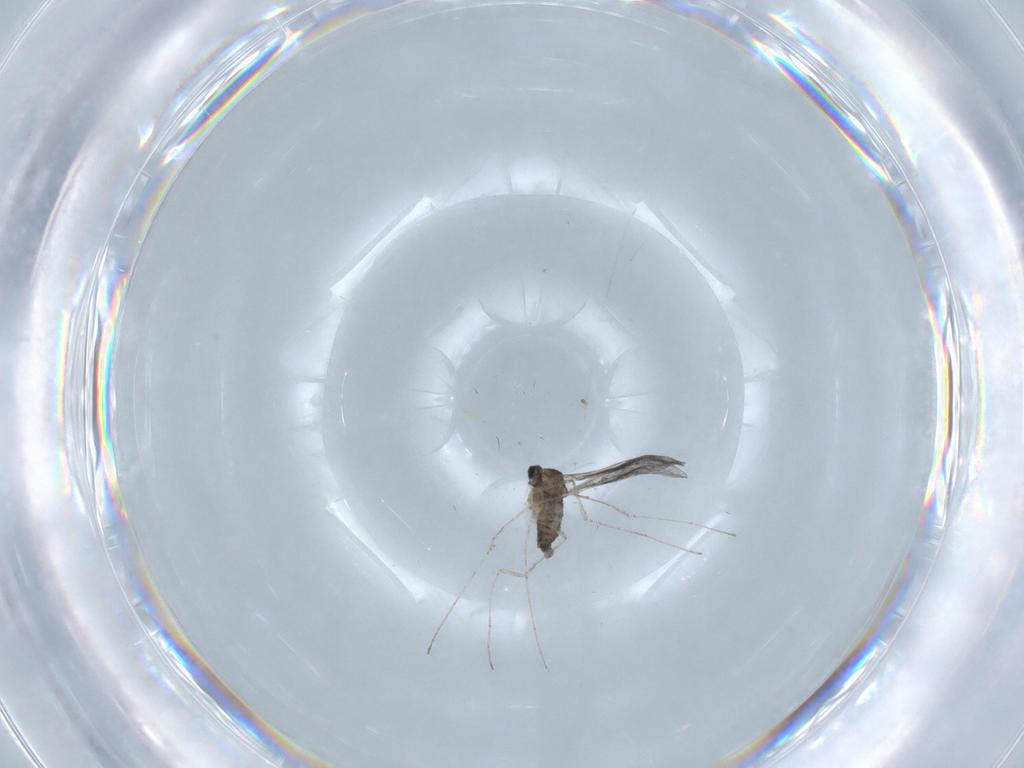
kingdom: Animalia
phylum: Arthropoda
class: Insecta
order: Diptera
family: Cecidomyiidae
